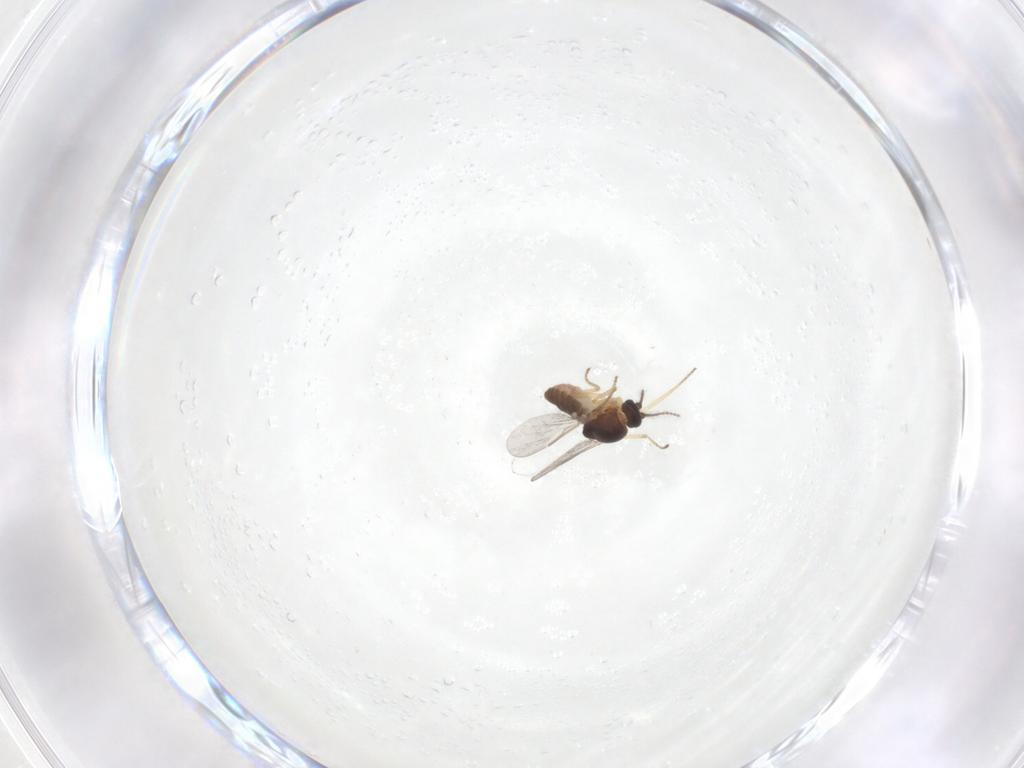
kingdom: Animalia
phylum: Arthropoda
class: Insecta
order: Diptera
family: Ceratopogonidae
